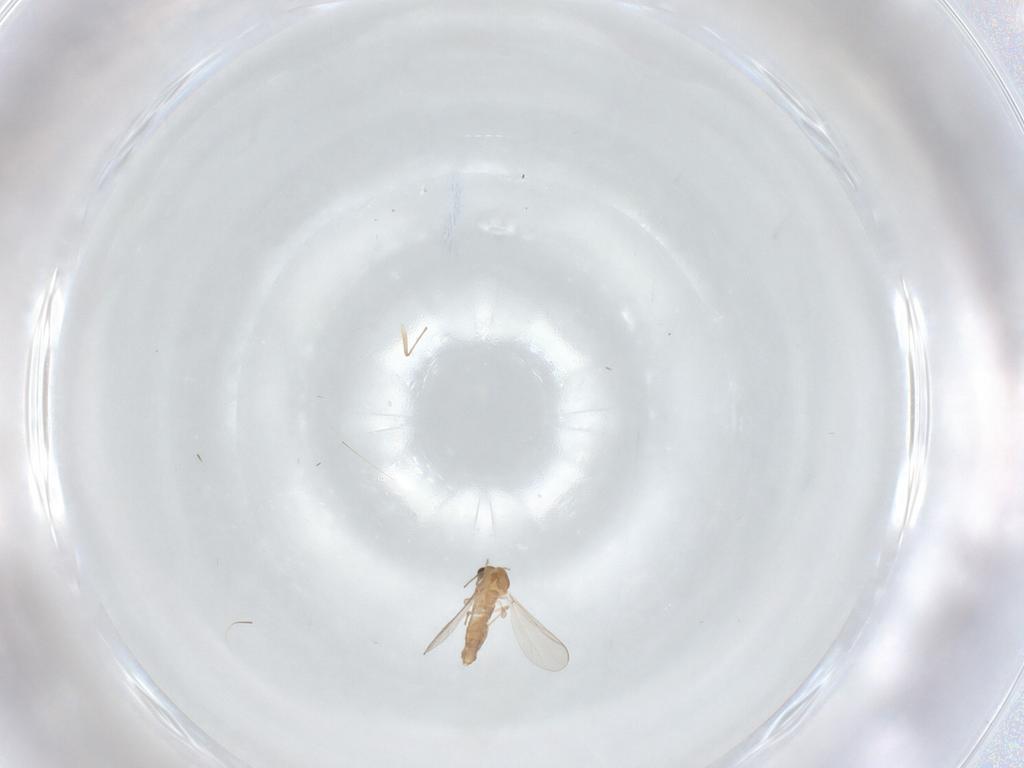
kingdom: Animalia
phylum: Arthropoda
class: Insecta
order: Diptera
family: Chironomidae
